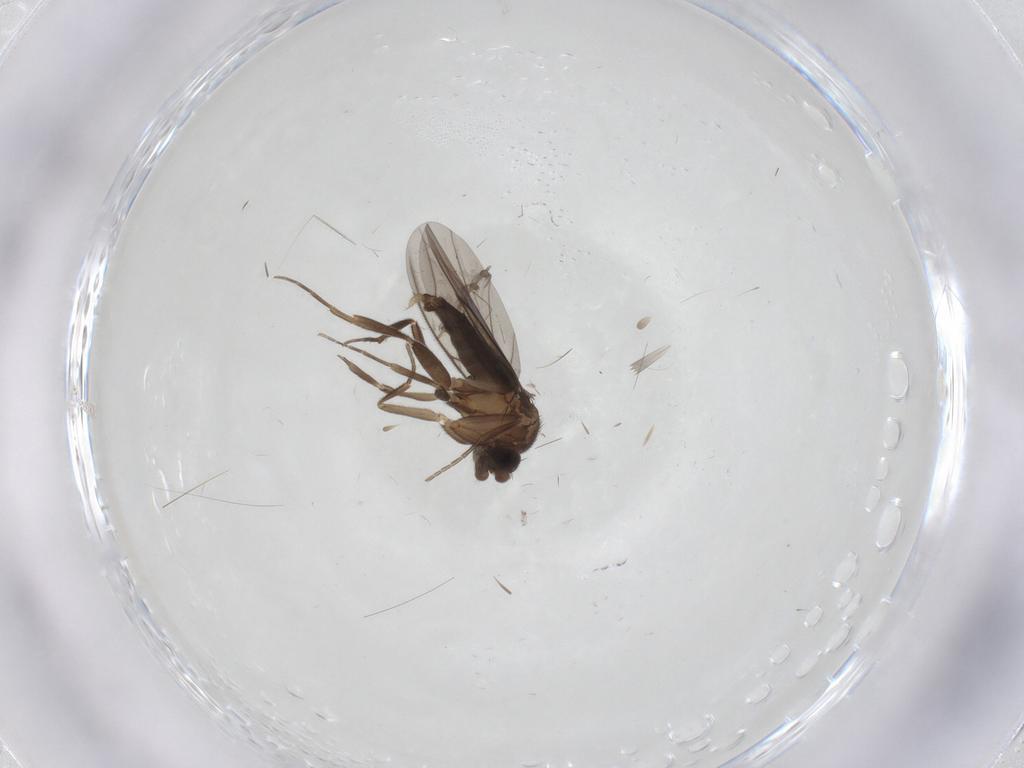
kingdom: Animalia
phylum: Arthropoda
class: Insecta
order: Diptera
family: Cecidomyiidae
